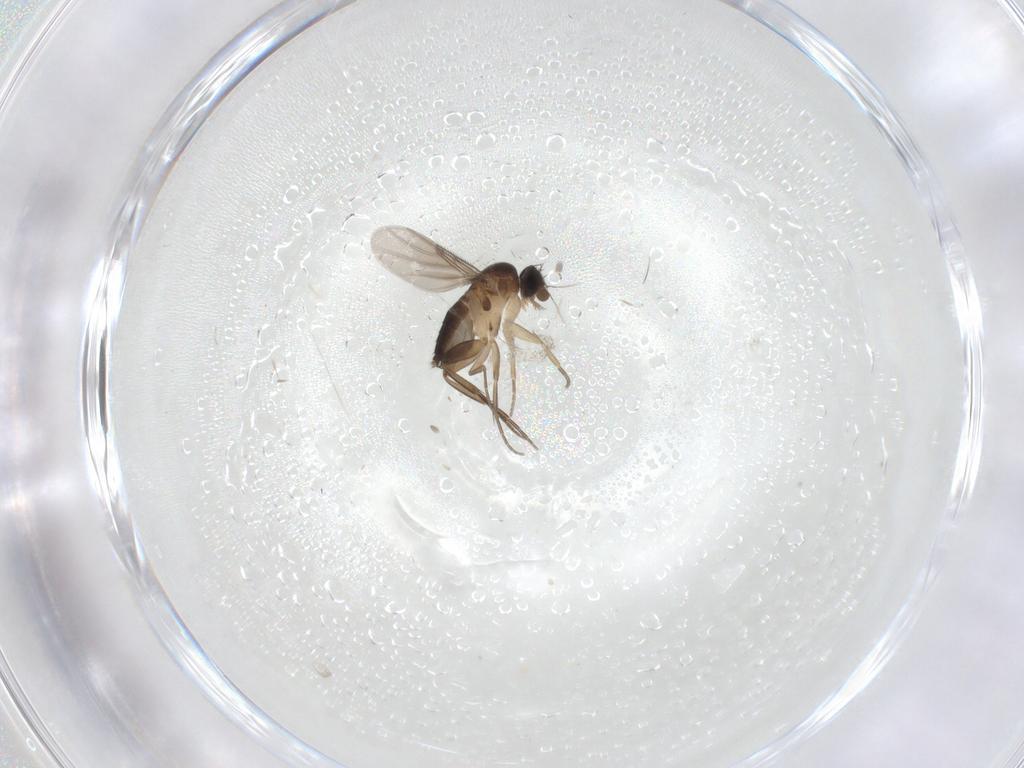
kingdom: Animalia
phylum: Arthropoda
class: Insecta
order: Diptera
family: Phoridae
